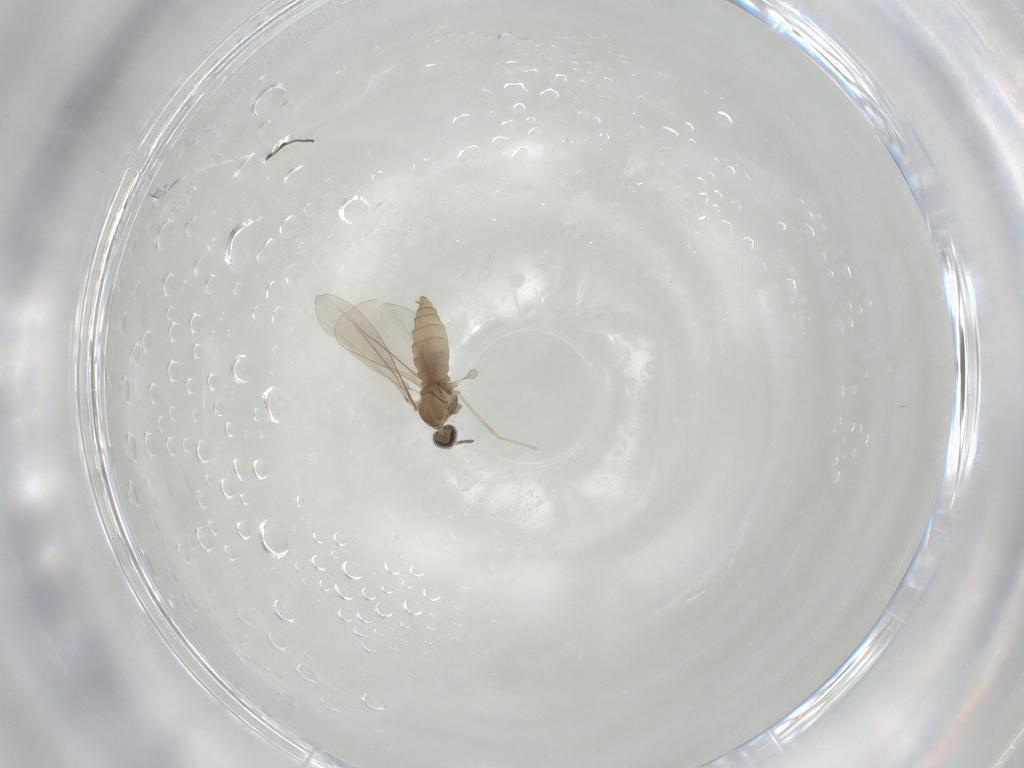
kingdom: Animalia
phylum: Arthropoda
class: Insecta
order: Diptera
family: Cecidomyiidae
